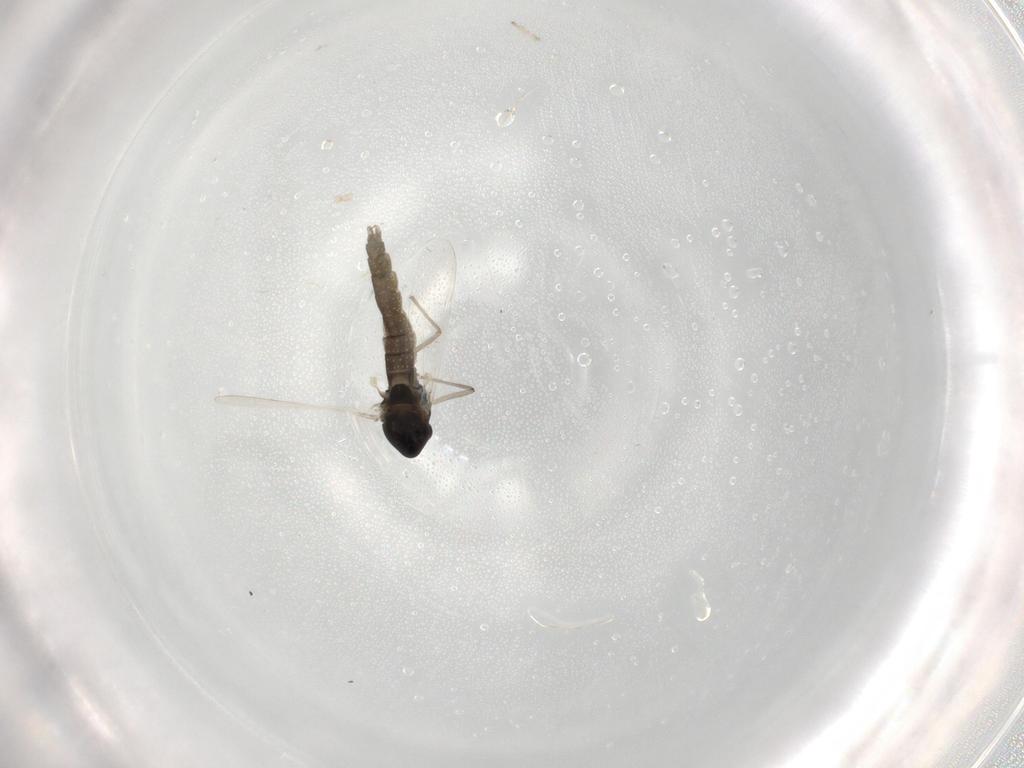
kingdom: Animalia
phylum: Arthropoda
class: Insecta
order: Diptera
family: Chironomidae
